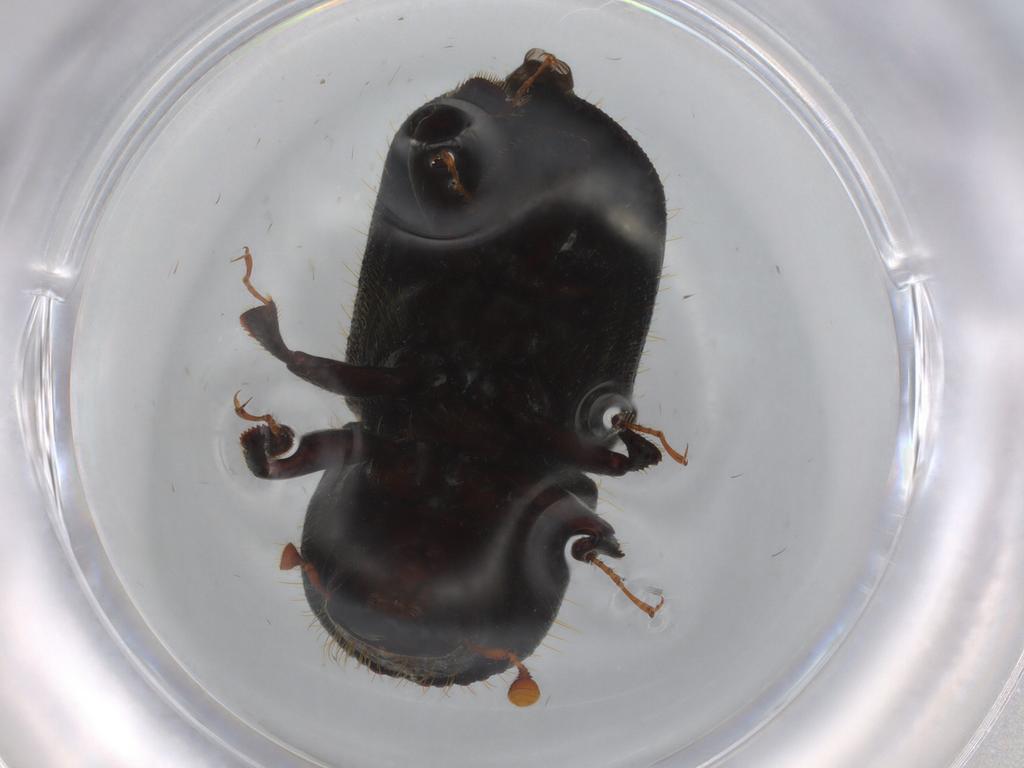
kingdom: Animalia
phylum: Arthropoda
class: Insecta
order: Coleoptera
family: Curculionidae
